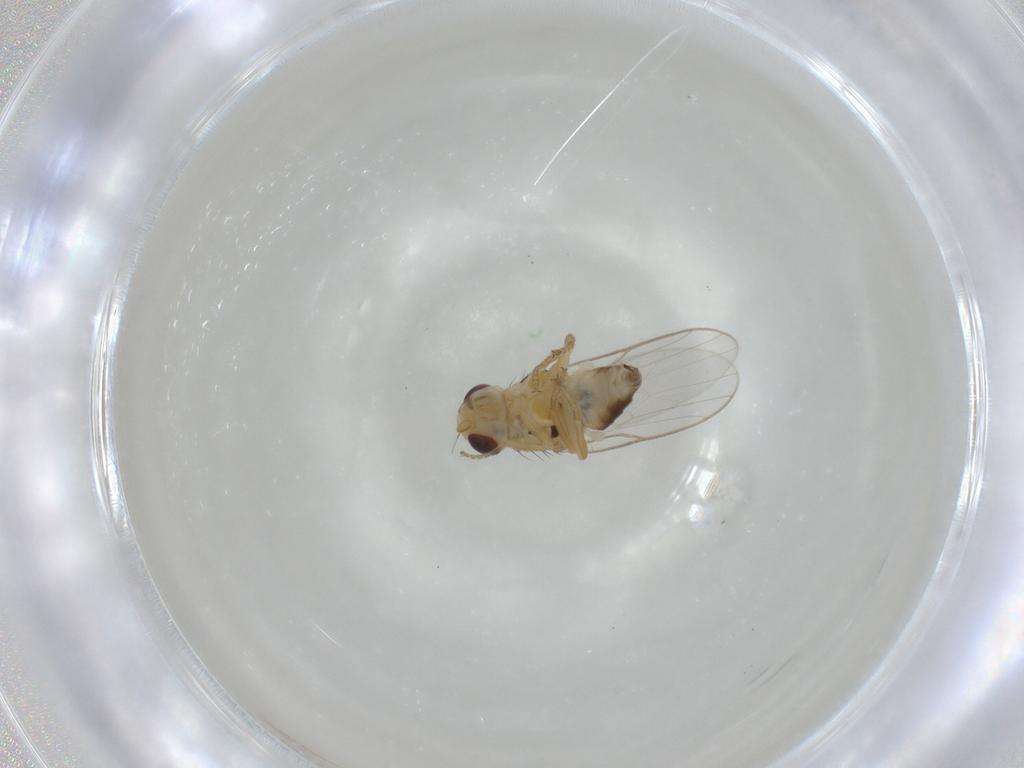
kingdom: Animalia
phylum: Arthropoda
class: Insecta
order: Diptera
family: Chloropidae
